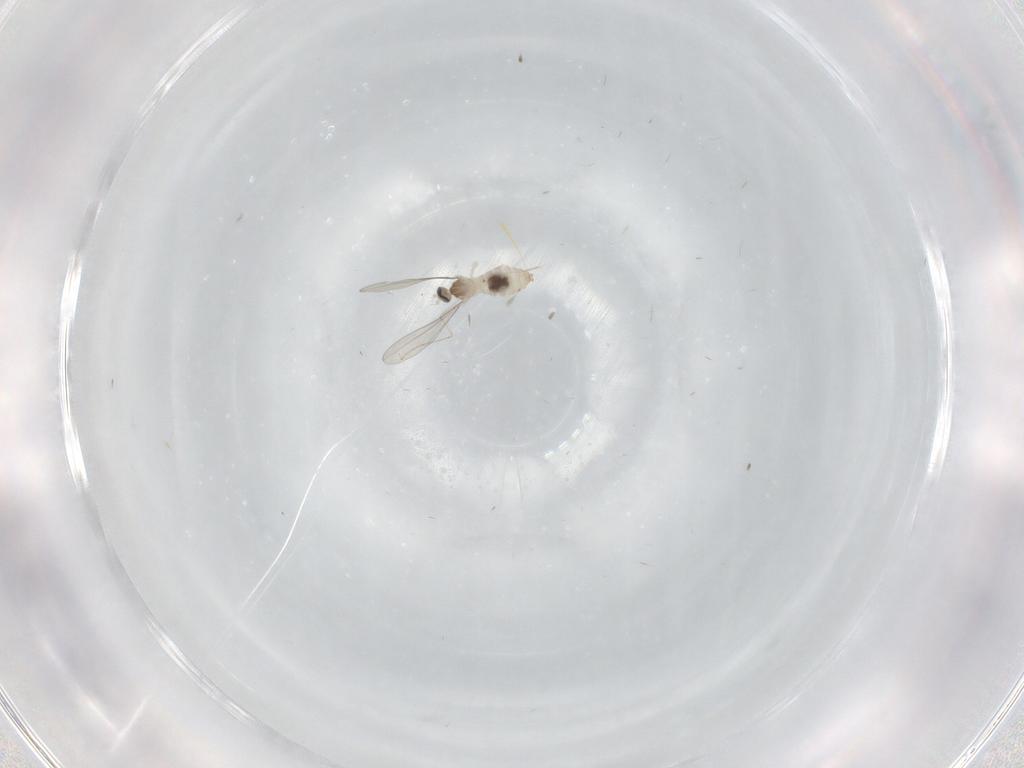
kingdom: Animalia
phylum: Arthropoda
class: Insecta
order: Diptera
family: Cecidomyiidae
